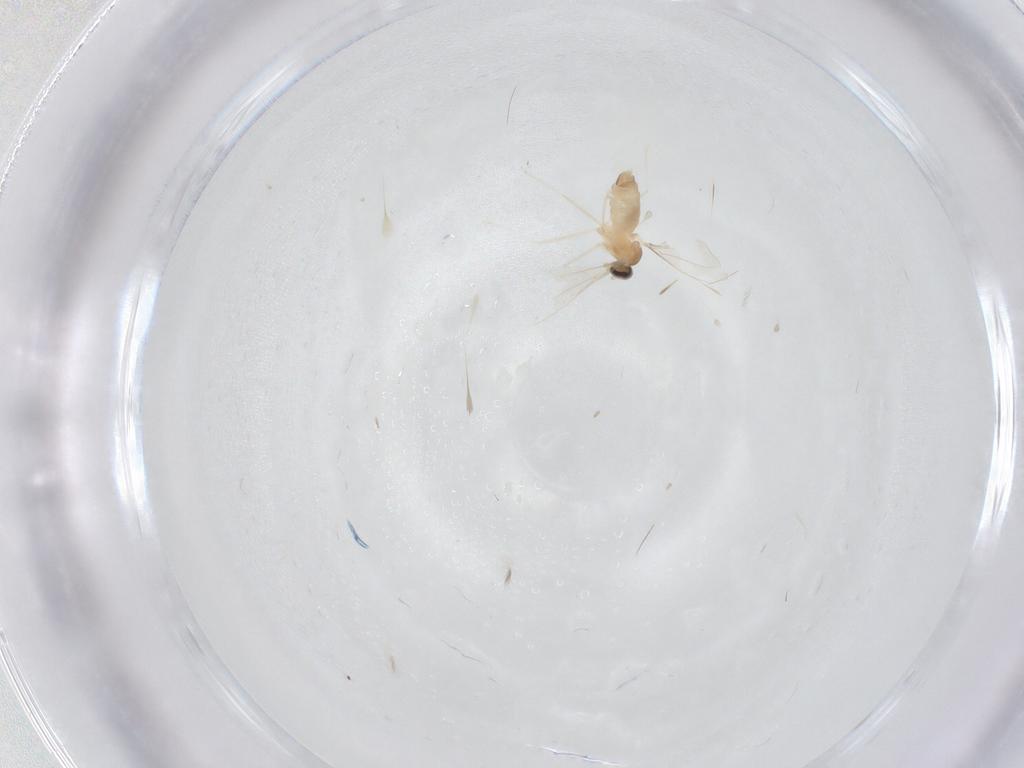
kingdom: Animalia
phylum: Arthropoda
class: Insecta
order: Diptera
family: Cecidomyiidae
